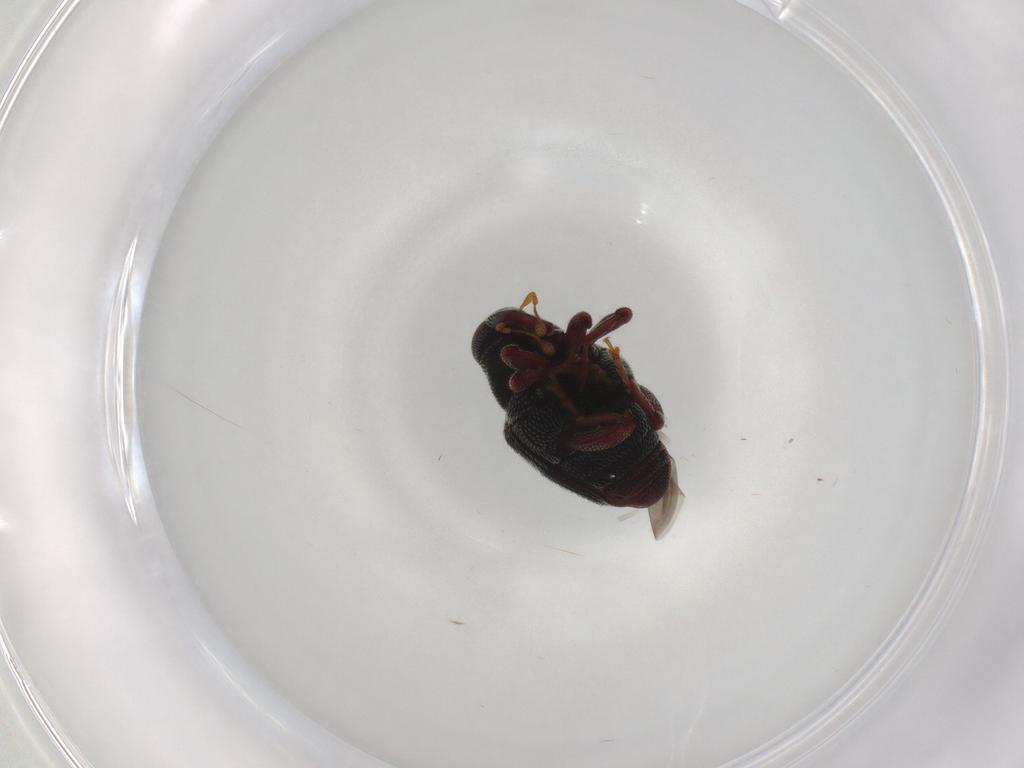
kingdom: Animalia
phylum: Arthropoda
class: Insecta
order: Coleoptera
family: Curculionidae
